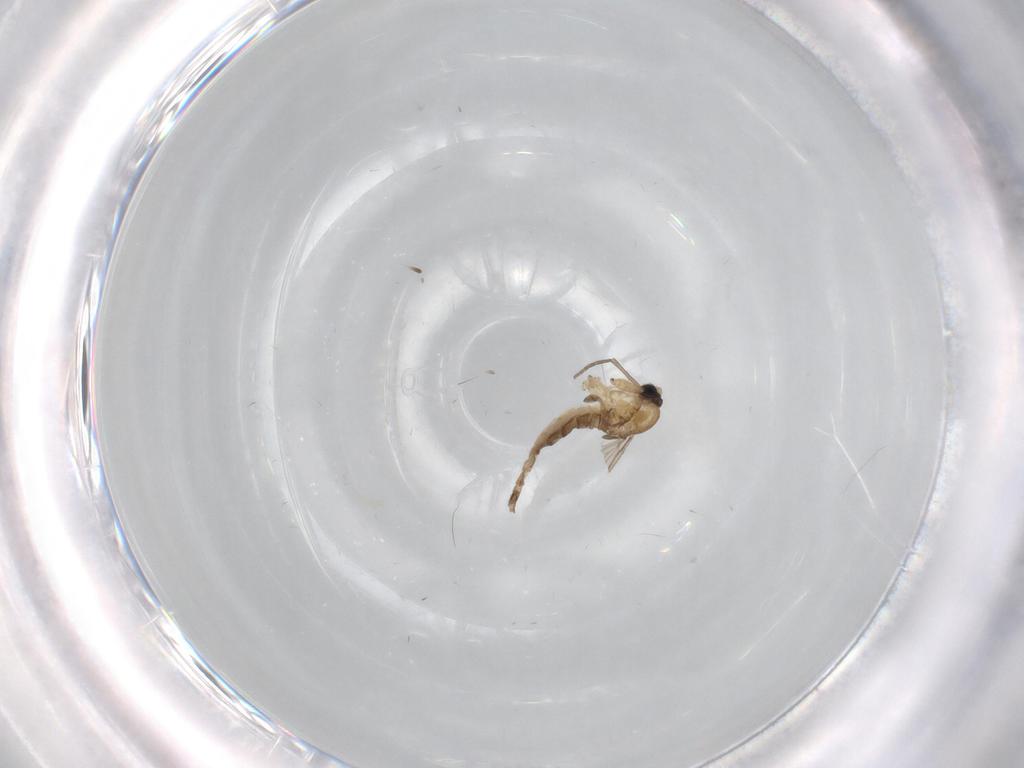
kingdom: Animalia
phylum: Arthropoda
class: Insecta
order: Diptera
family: Sciaridae
